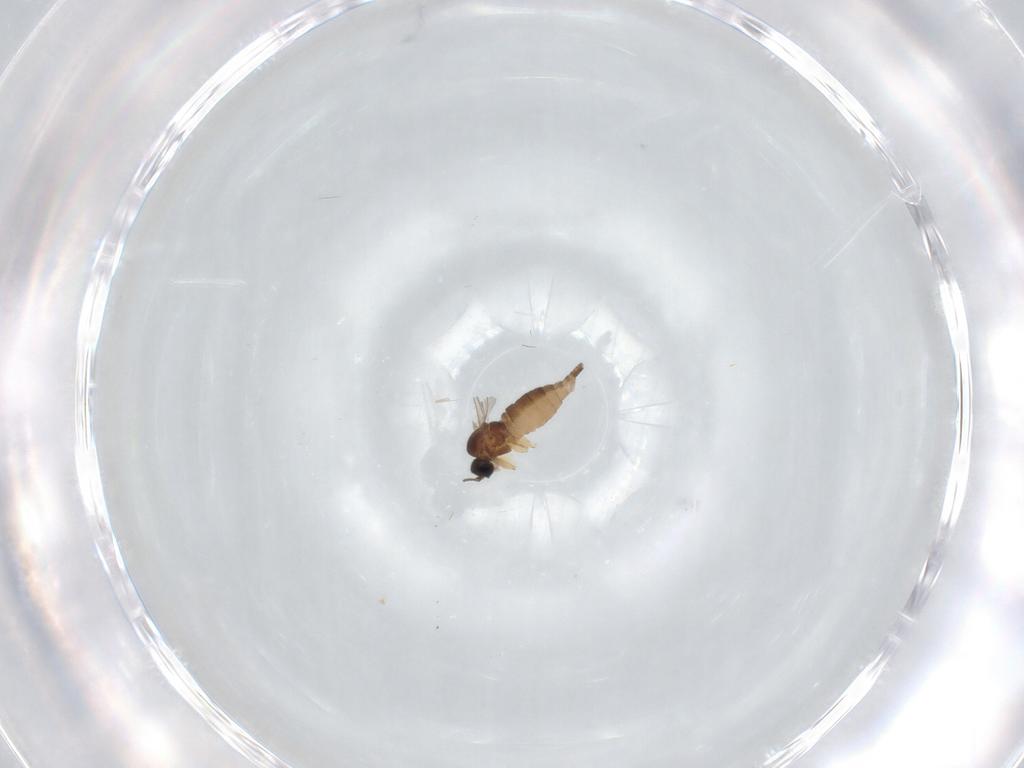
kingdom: Animalia
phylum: Arthropoda
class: Insecta
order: Diptera
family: Sciaridae
